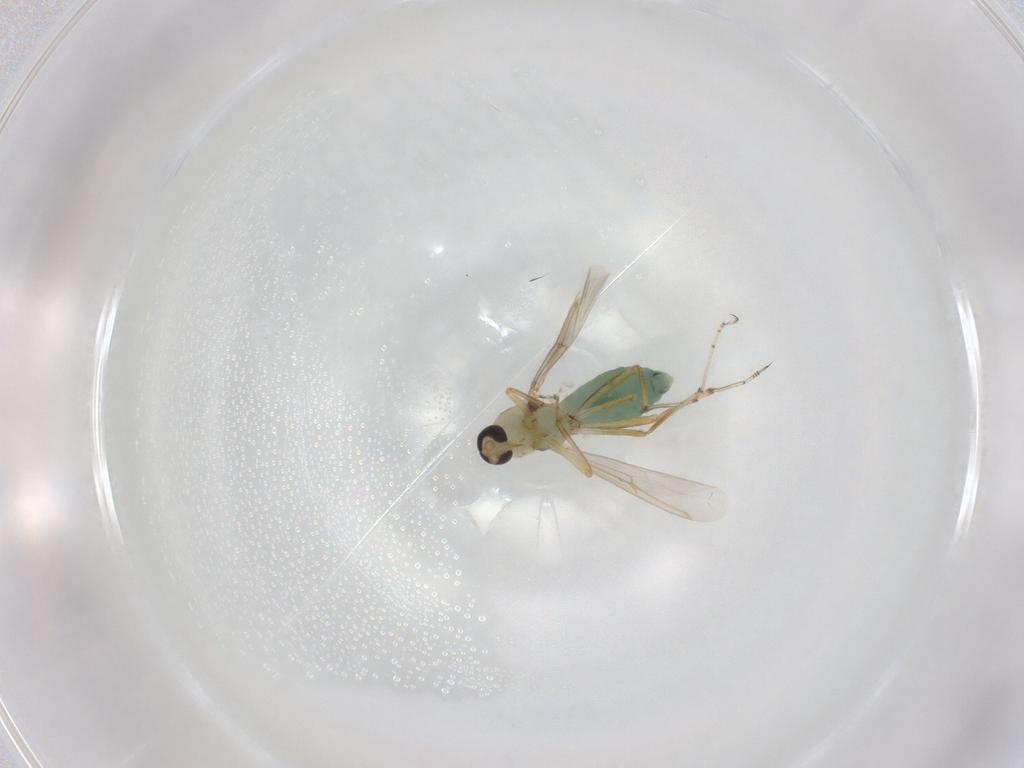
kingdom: Animalia
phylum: Arthropoda
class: Insecta
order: Diptera
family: Ceratopogonidae
